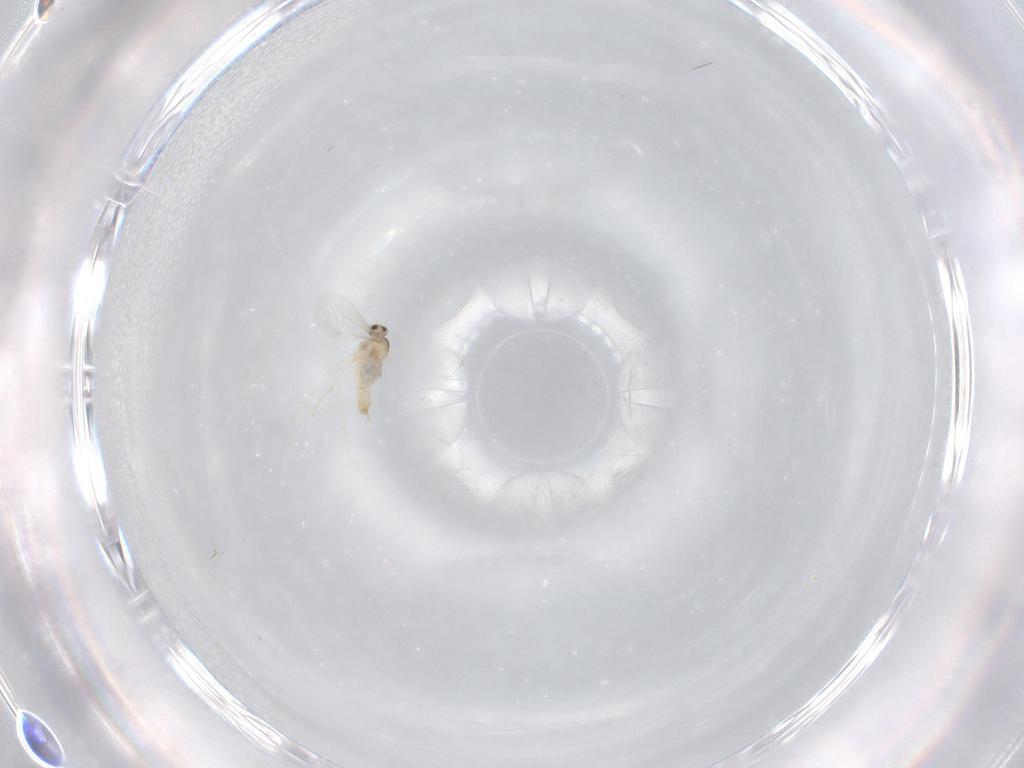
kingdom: Animalia
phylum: Arthropoda
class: Insecta
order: Diptera
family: Cecidomyiidae
